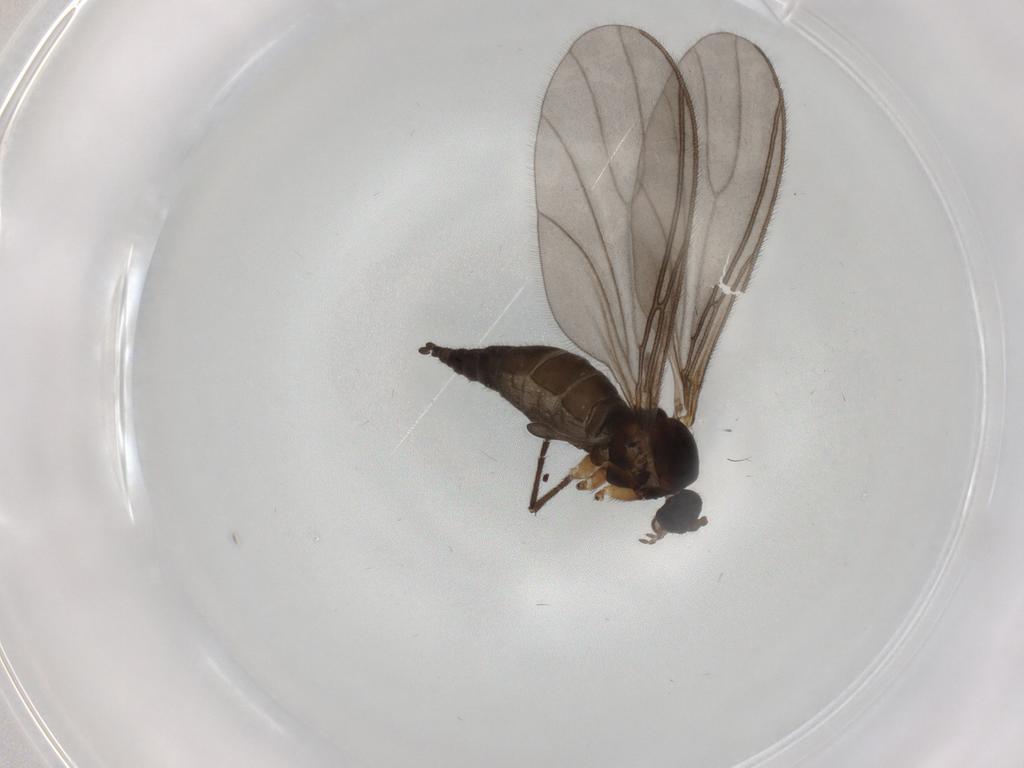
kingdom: Animalia
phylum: Arthropoda
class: Insecta
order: Diptera
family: Sciaridae
